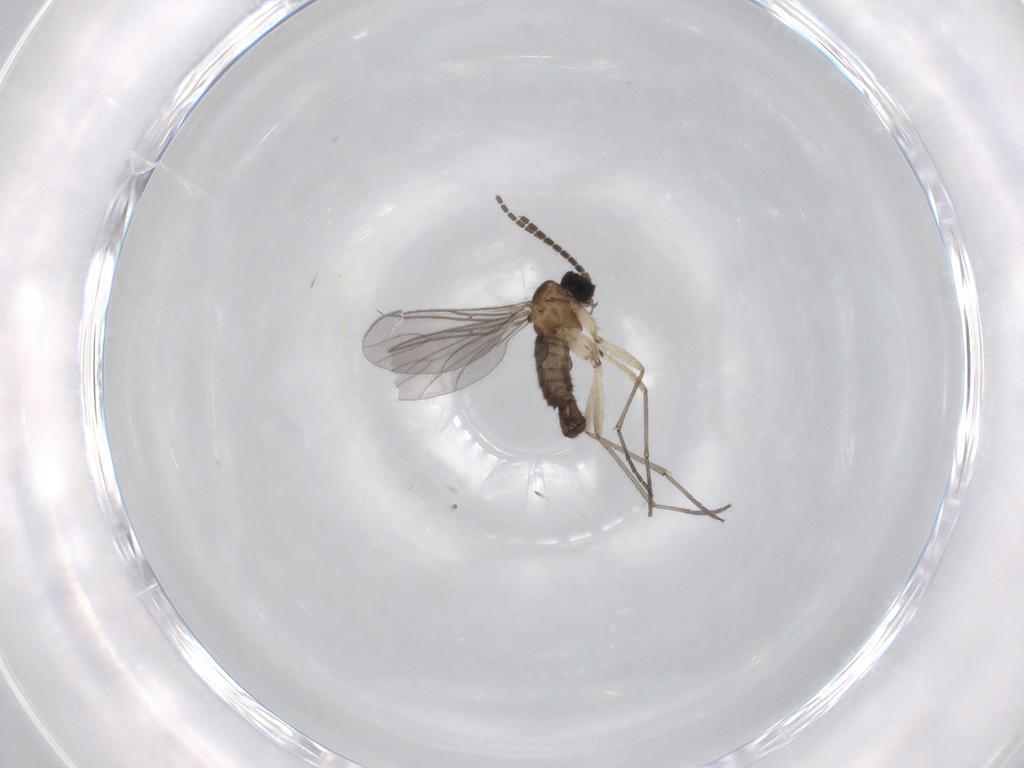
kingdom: Animalia
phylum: Arthropoda
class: Insecta
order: Diptera
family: Sciaridae
